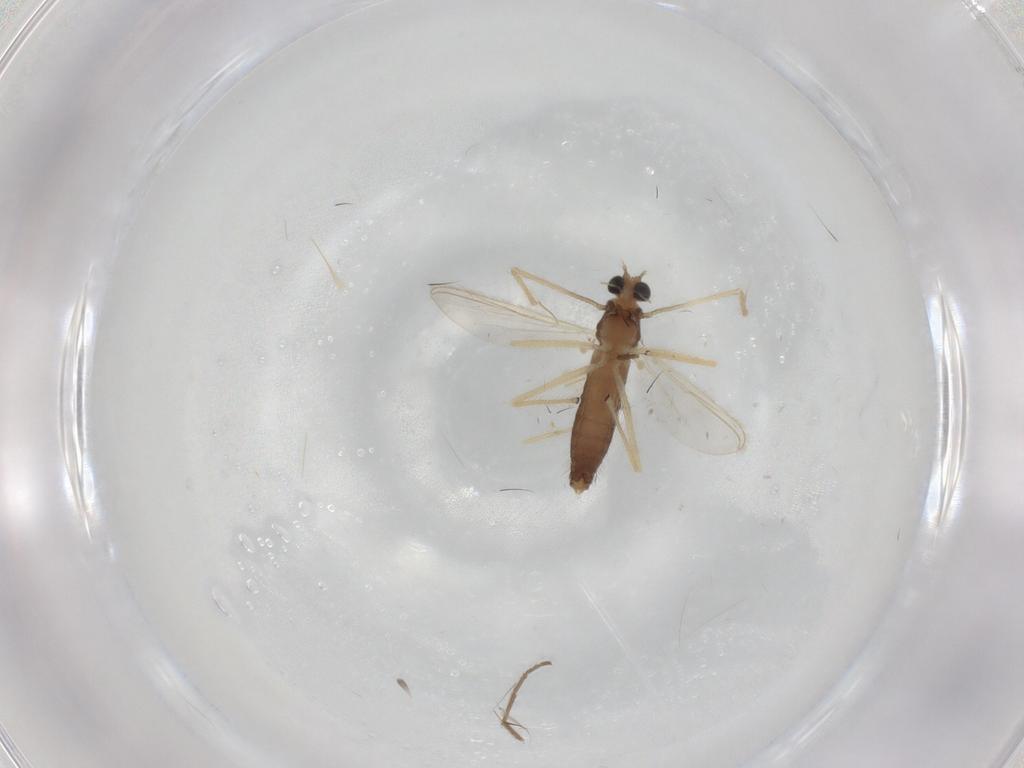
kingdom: Animalia
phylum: Arthropoda
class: Insecta
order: Diptera
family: Chironomidae
